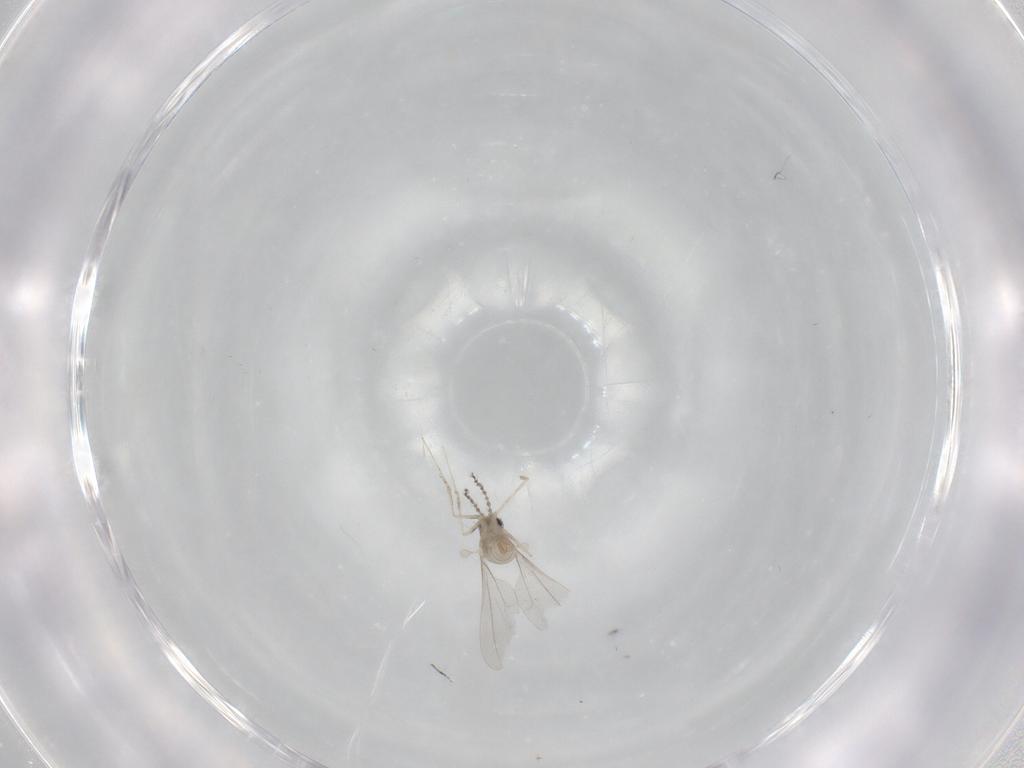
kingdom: Animalia
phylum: Arthropoda
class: Insecta
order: Diptera
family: Cecidomyiidae
